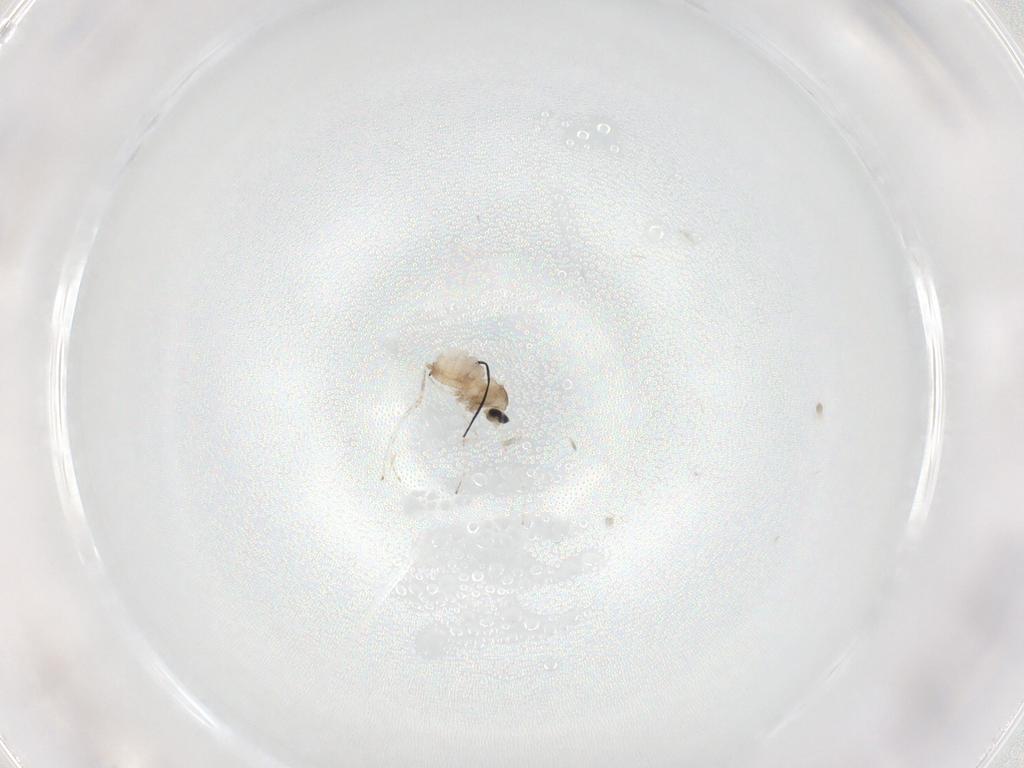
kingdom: Animalia
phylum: Arthropoda
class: Insecta
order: Diptera
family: Cecidomyiidae
